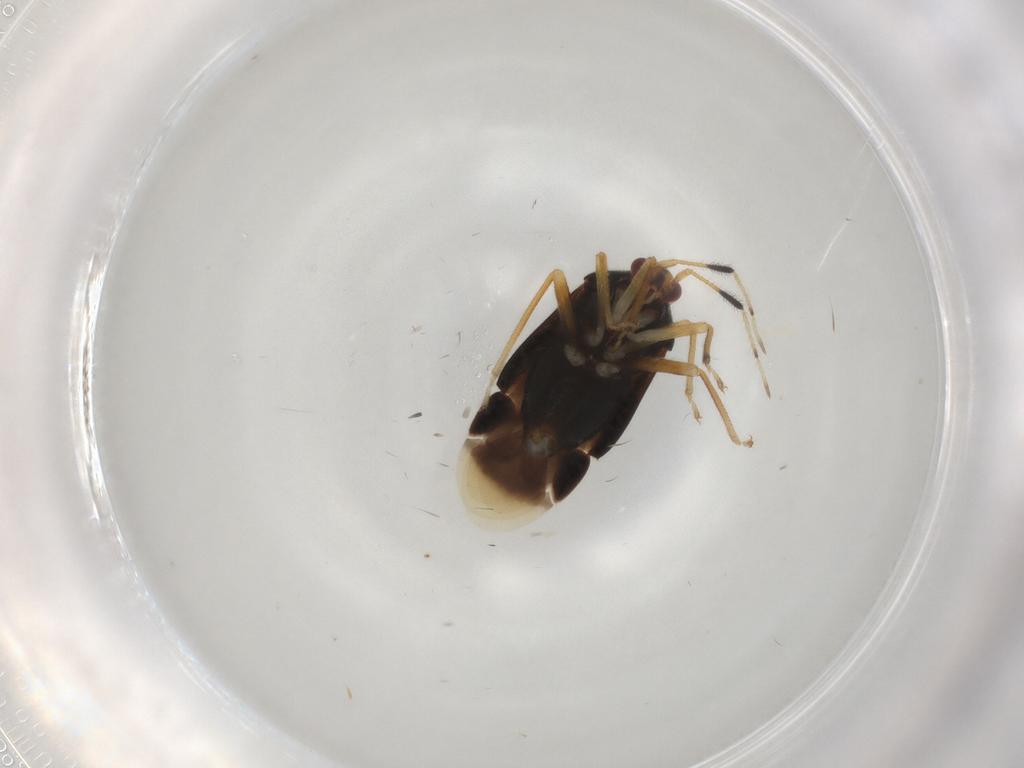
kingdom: Animalia
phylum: Arthropoda
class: Insecta
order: Hemiptera
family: Miridae
